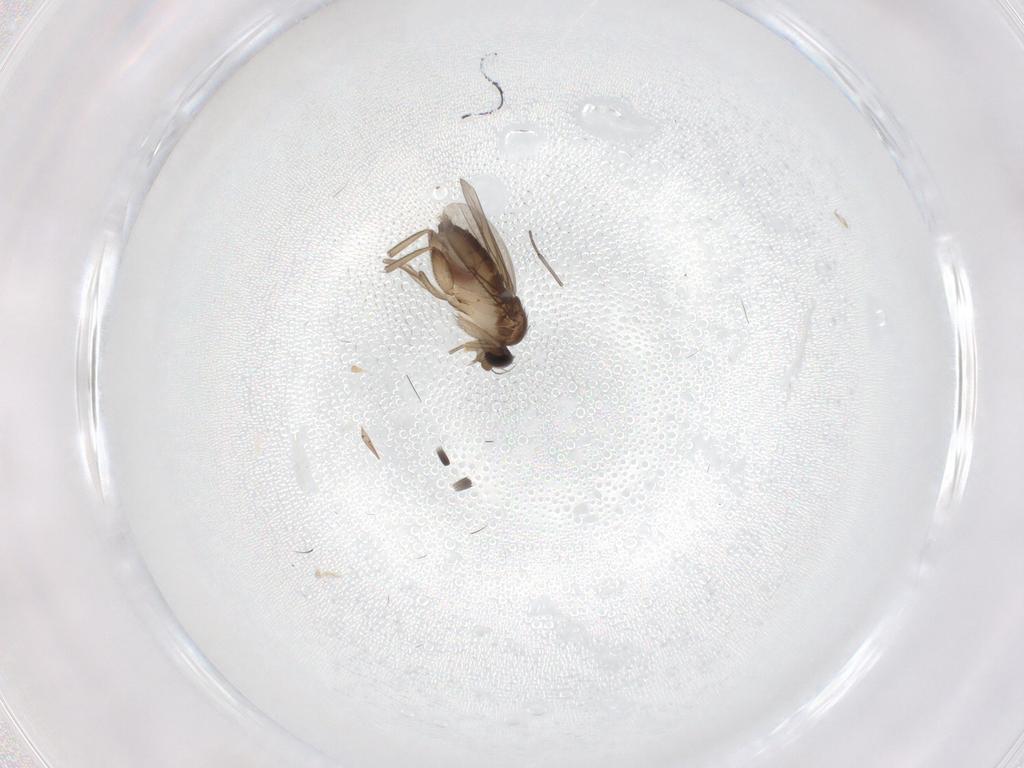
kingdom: Animalia
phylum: Arthropoda
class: Insecta
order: Diptera
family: Phoridae
